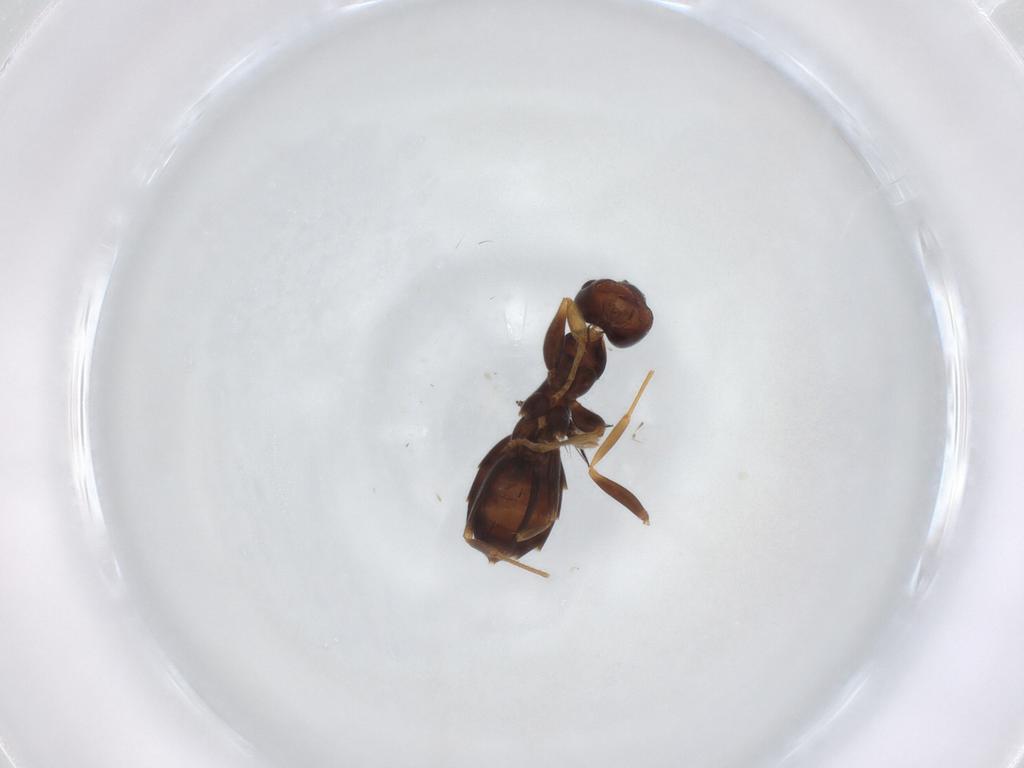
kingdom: Animalia
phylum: Arthropoda
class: Insecta
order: Hymenoptera
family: Formicidae
